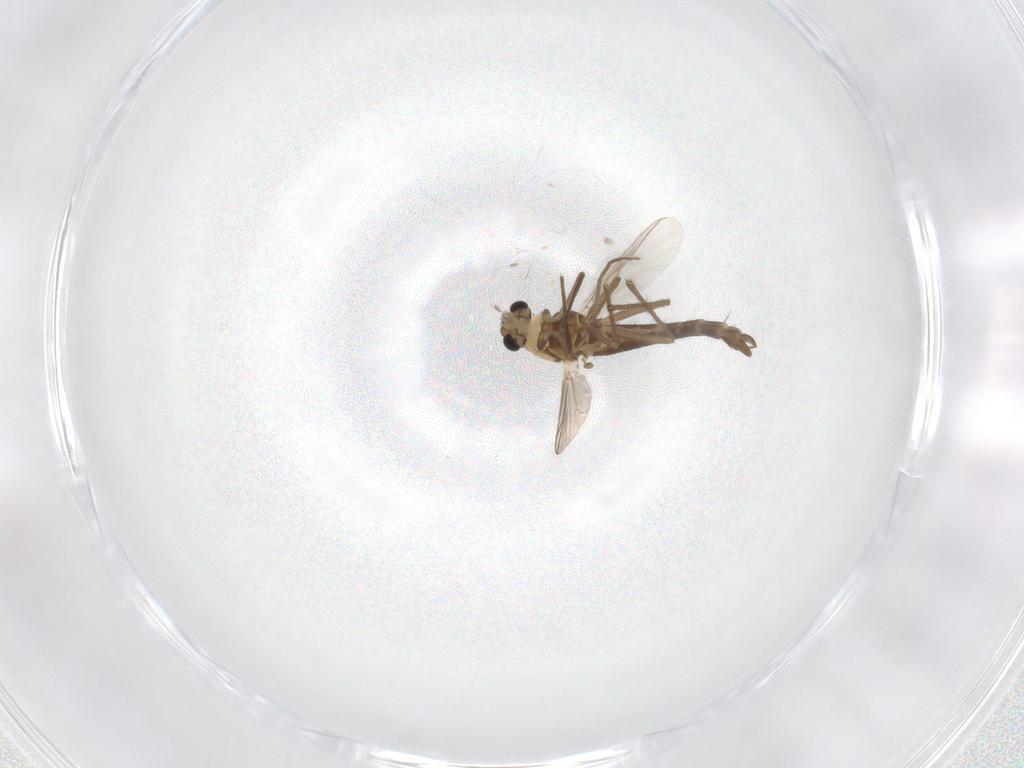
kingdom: Animalia
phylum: Arthropoda
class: Insecta
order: Diptera
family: Chironomidae
